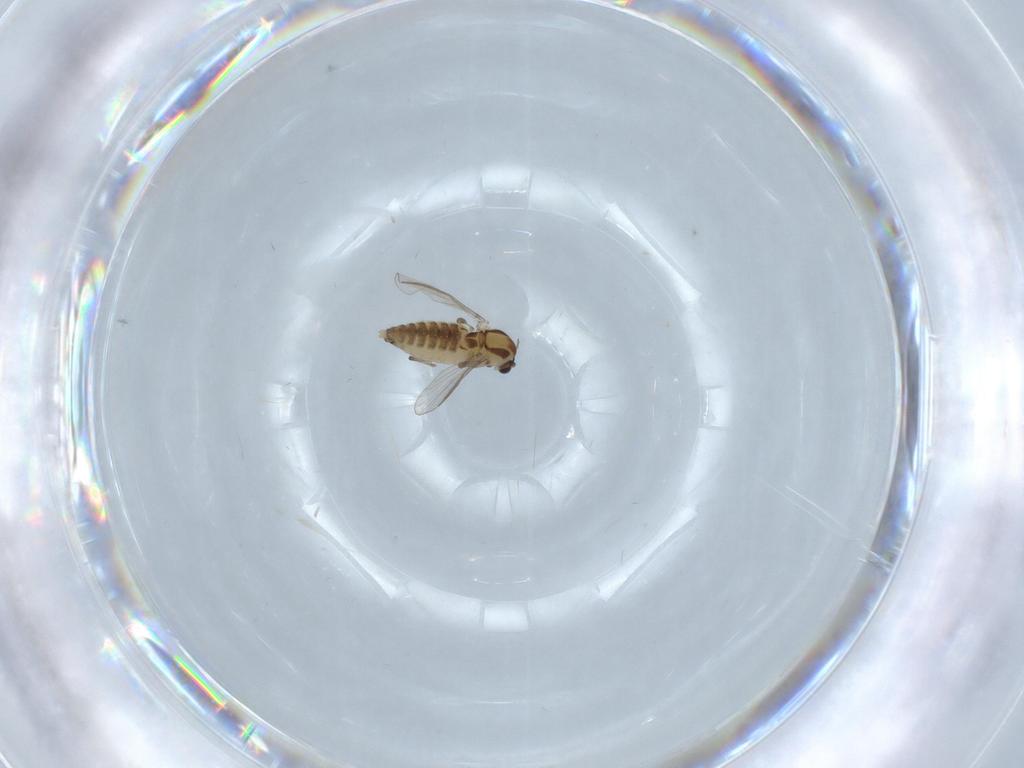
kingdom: Animalia
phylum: Arthropoda
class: Insecta
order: Diptera
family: Chironomidae
